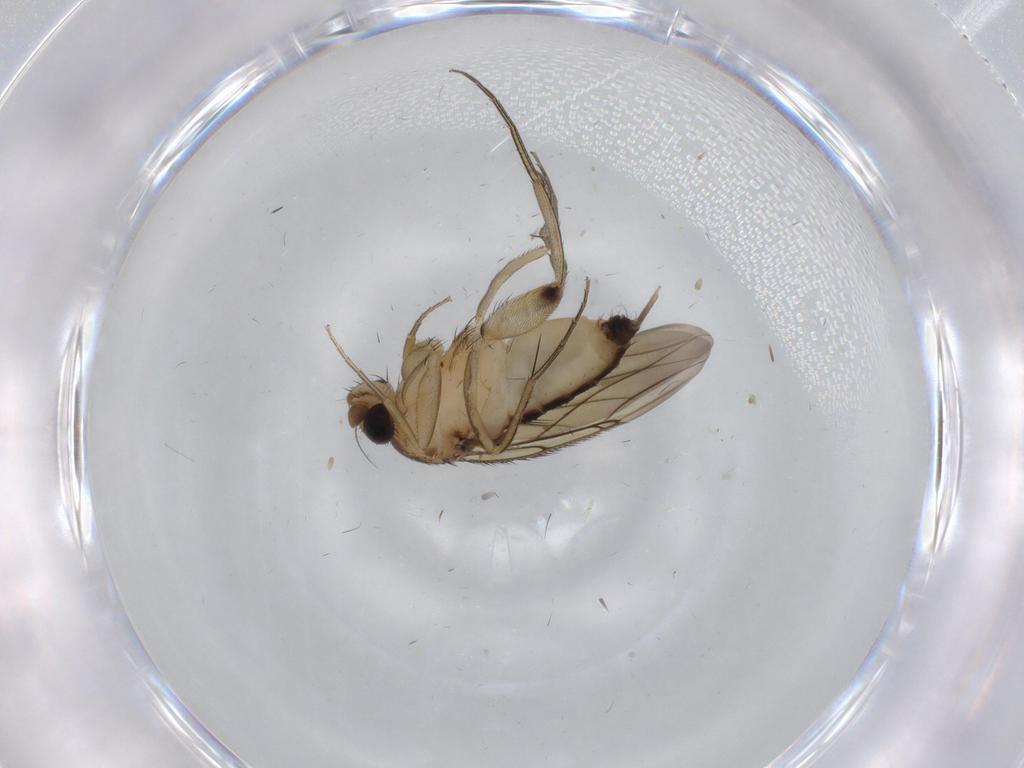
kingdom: Animalia
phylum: Arthropoda
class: Insecta
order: Diptera
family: Phoridae
